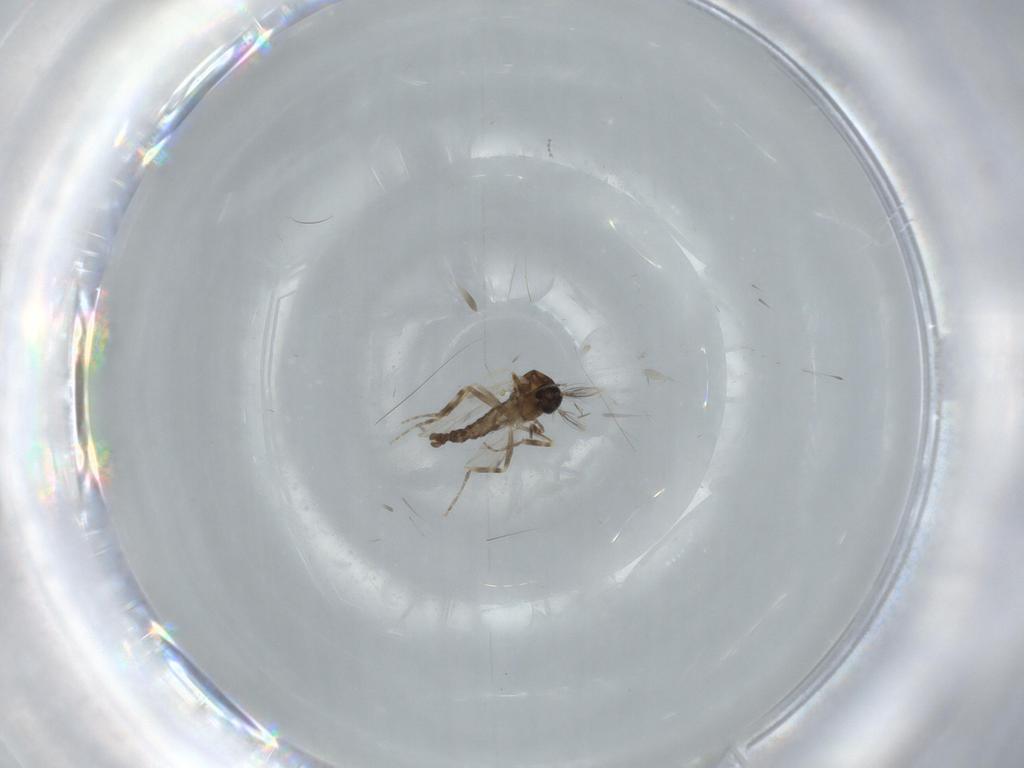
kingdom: Animalia
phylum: Arthropoda
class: Insecta
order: Diptera
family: Ceratopogonidae
